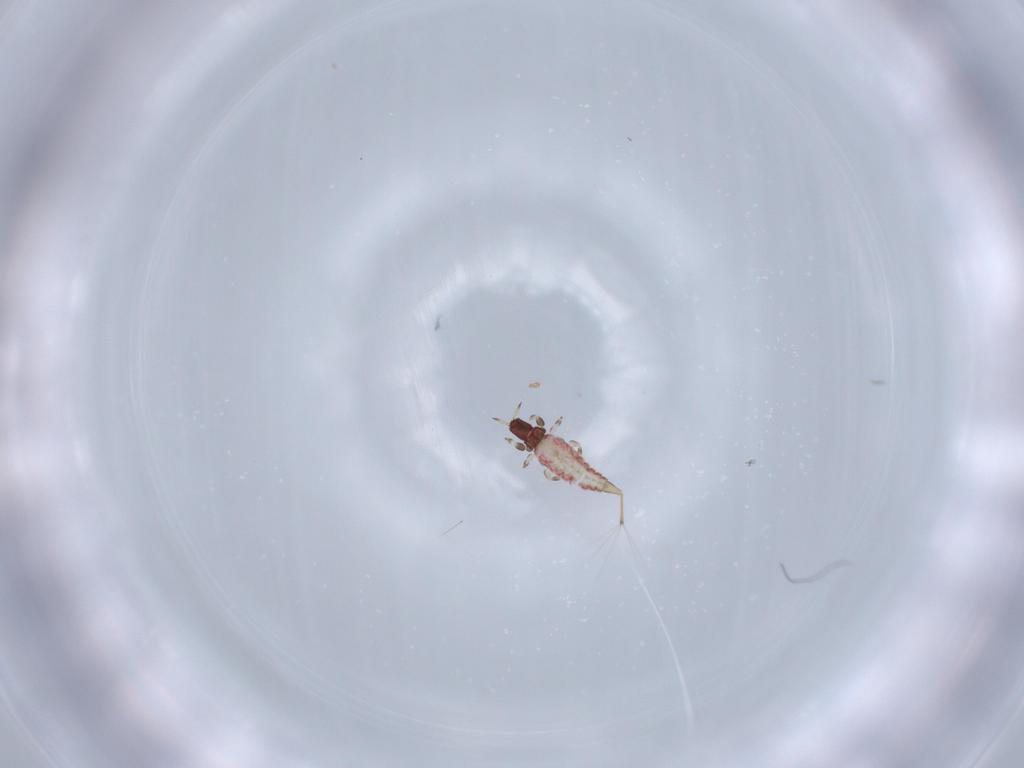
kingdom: Animalia
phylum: Arthropoda
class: Insecta
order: Thysanoptera
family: Phlaeothripidae
